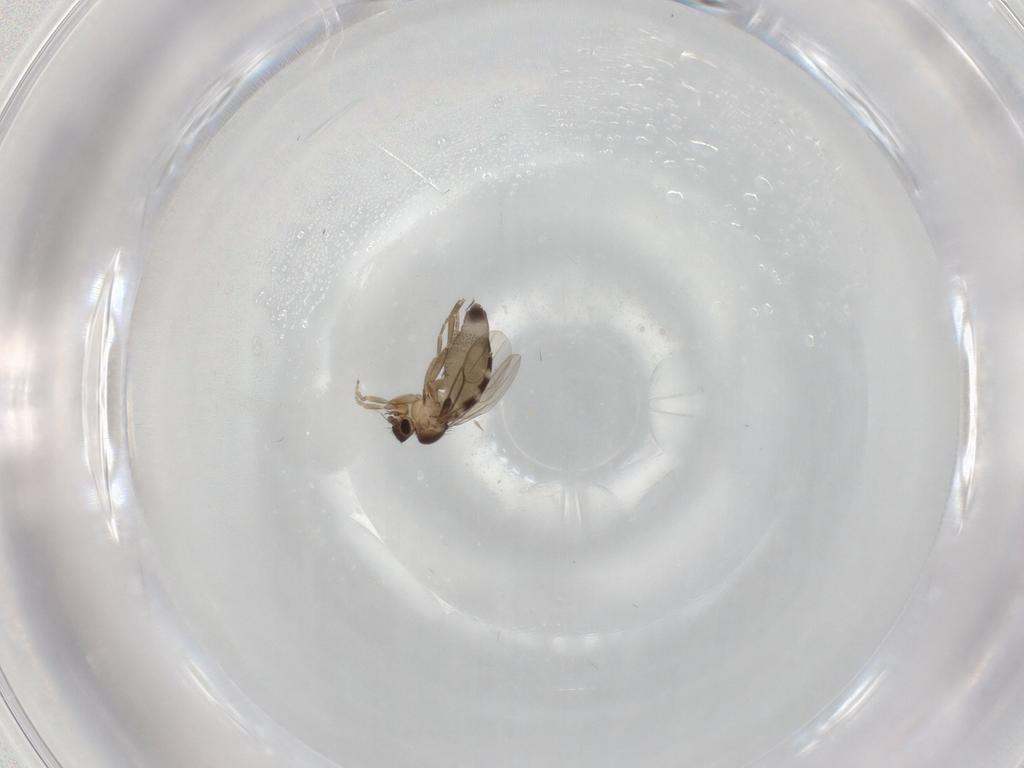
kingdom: Animalia
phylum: Arthropoda
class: Insecta
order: Diptera
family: Phoridae
